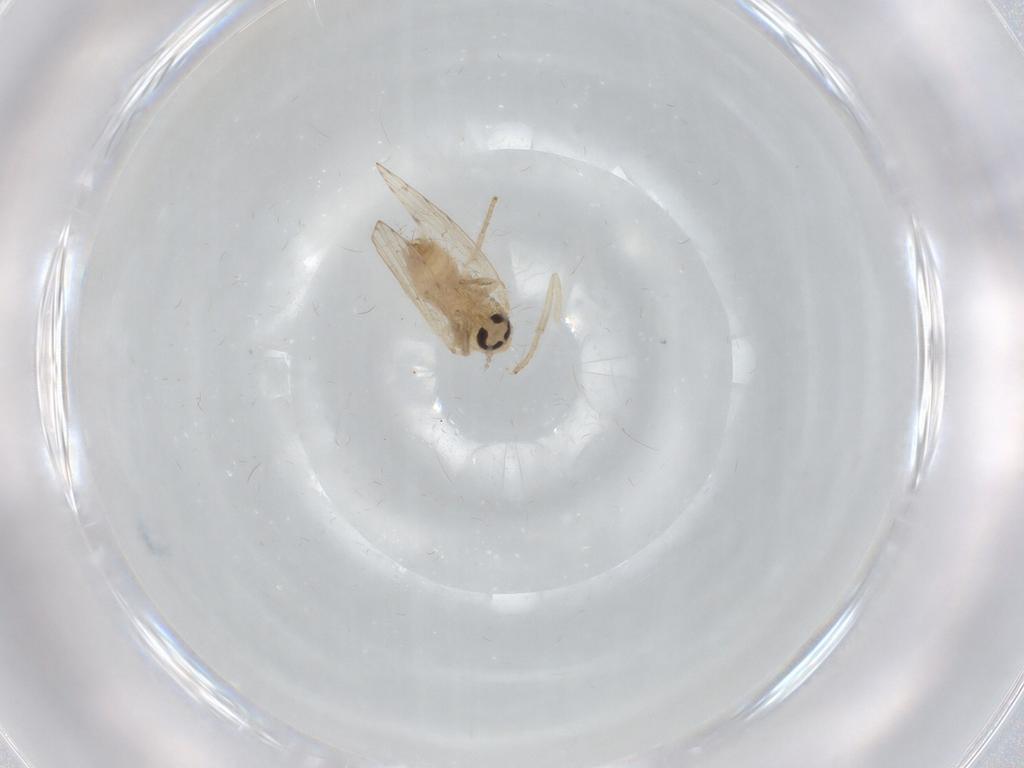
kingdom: Animalia
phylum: Arthropoda
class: Insecta
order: Diptera
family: Psychodidae
